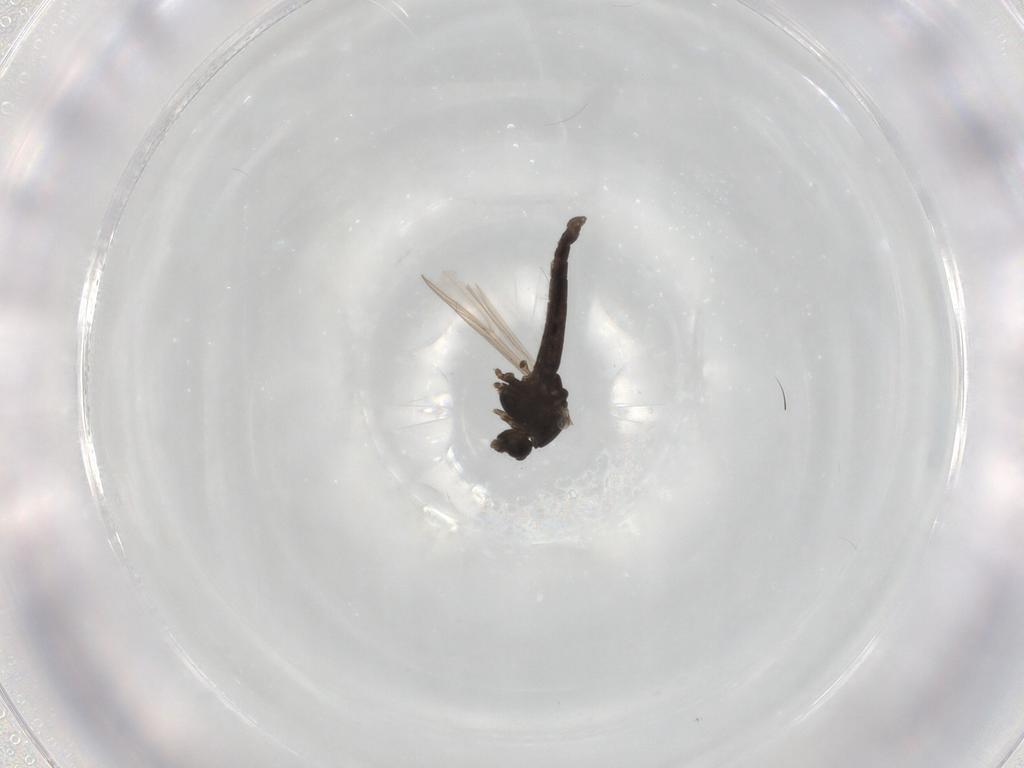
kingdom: Animalia
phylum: Arthropoda
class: Insecta
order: Diptera
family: Chironomidae
